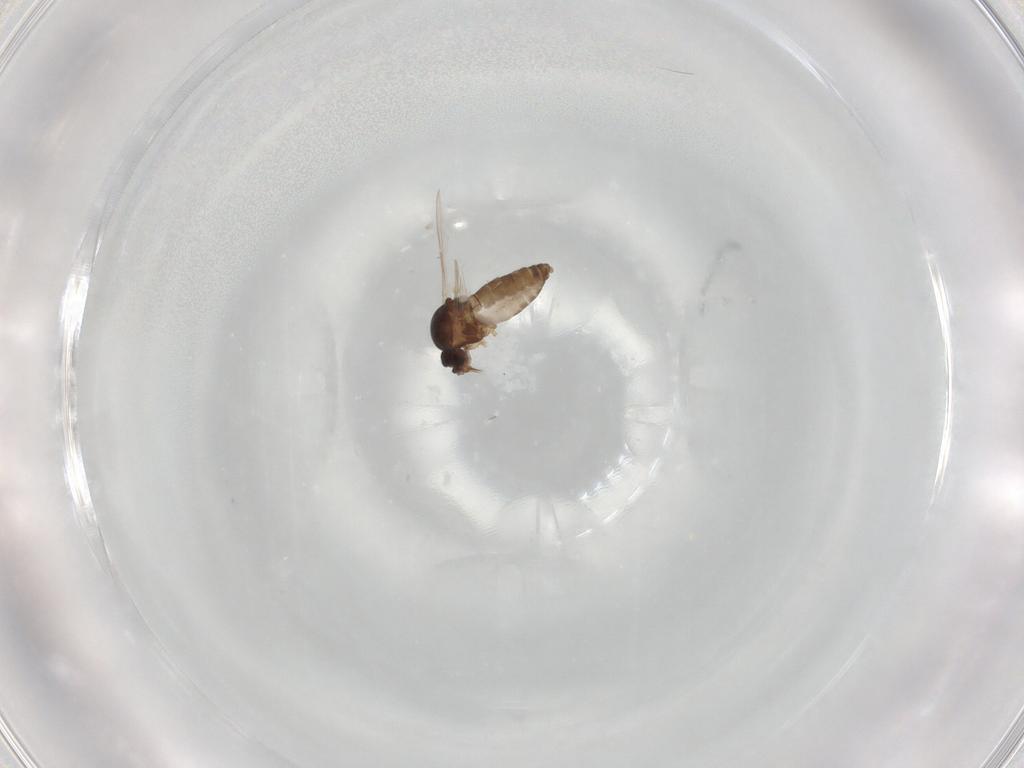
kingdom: Animalia
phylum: Arthropoda
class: Insecta
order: Diptera
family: Ceratopogonidae
